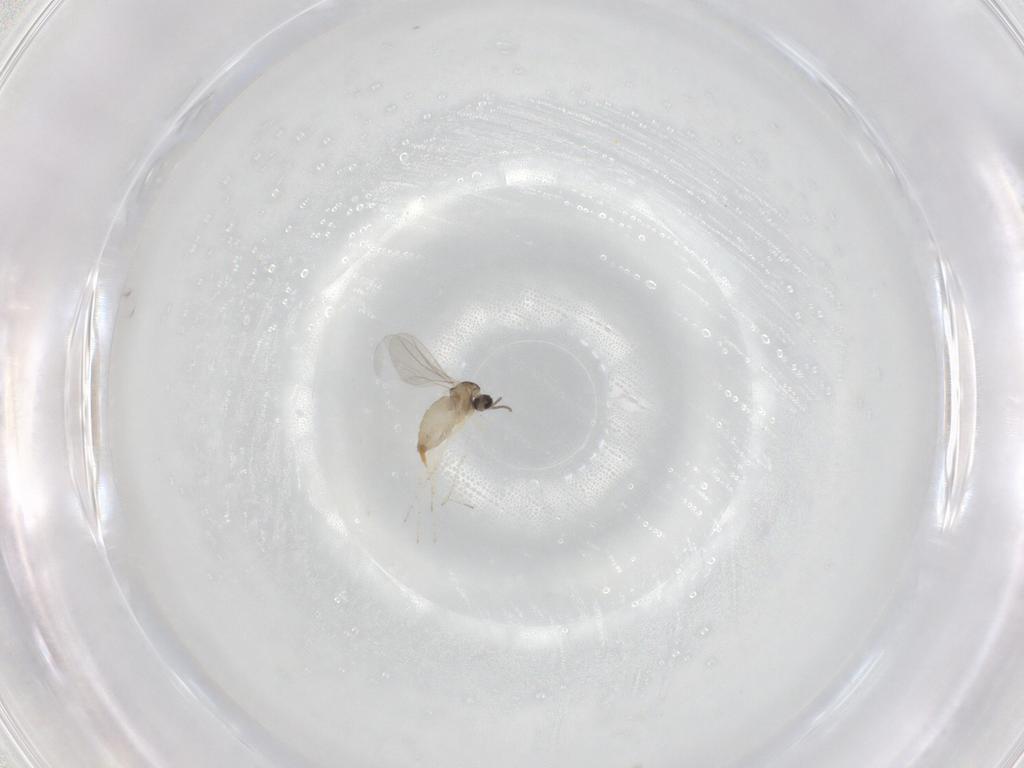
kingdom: Animalia
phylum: Arthropoda
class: Insecta
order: Diptera
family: Cecidomyiidae
